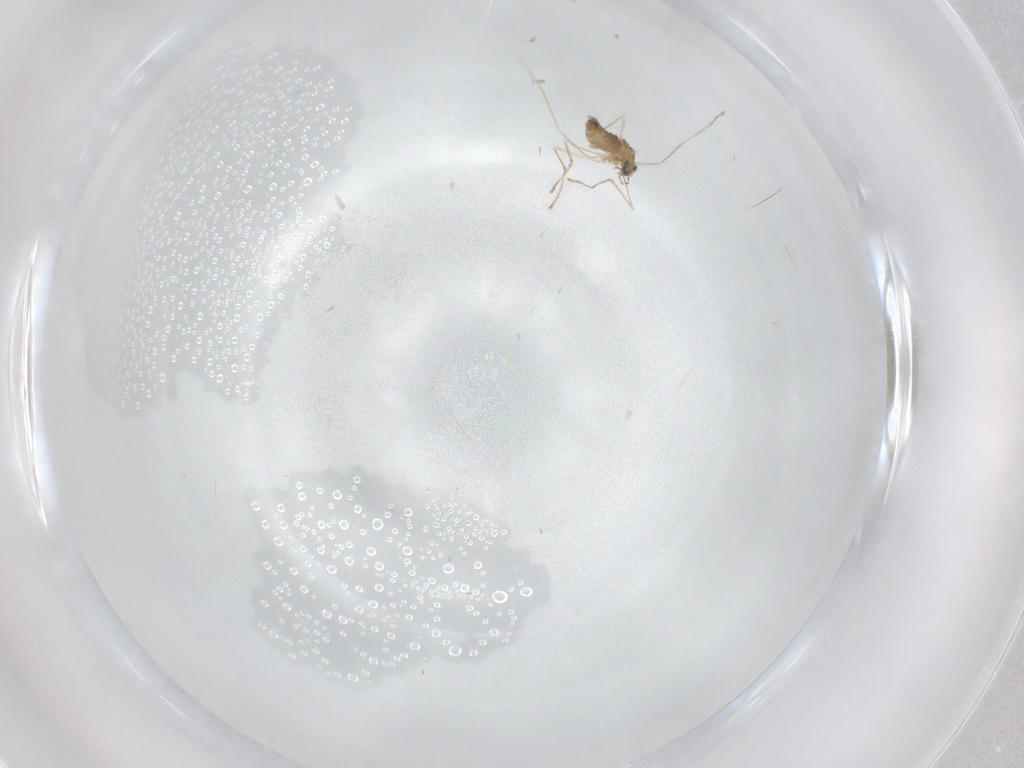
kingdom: Animalia
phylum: Arthropoda
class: Insecta
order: Diptera
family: Cecidomyiidae
